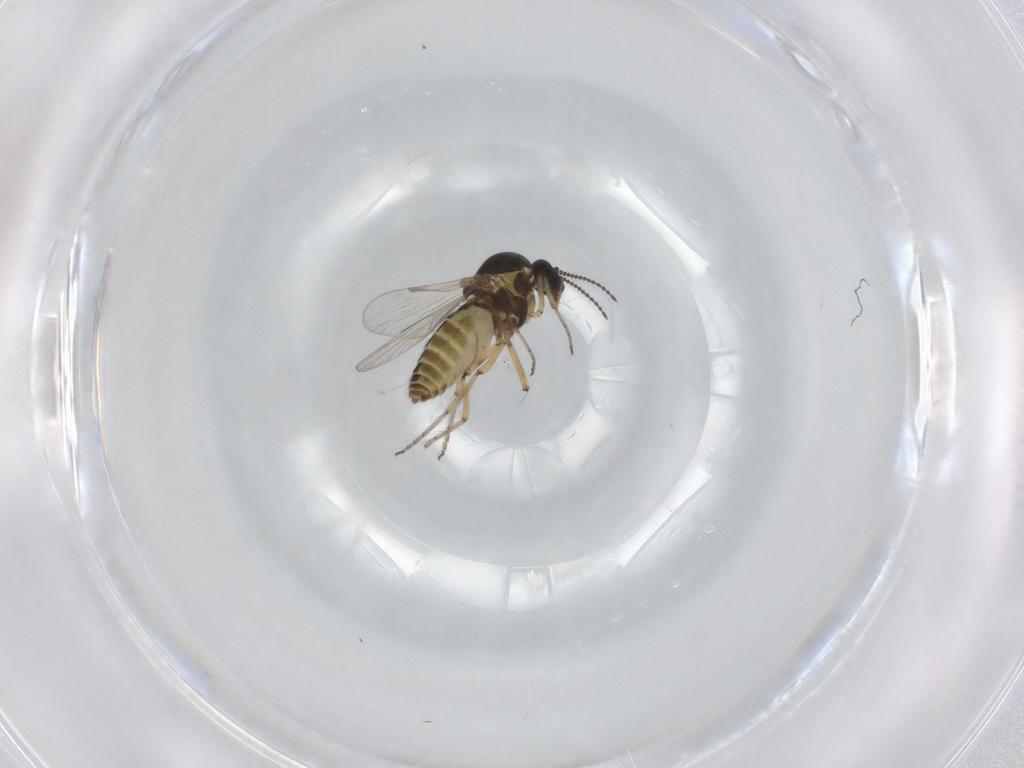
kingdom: Animalia
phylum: Arthropoda
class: Insecta
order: Diptera
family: Ceratopogonidae
